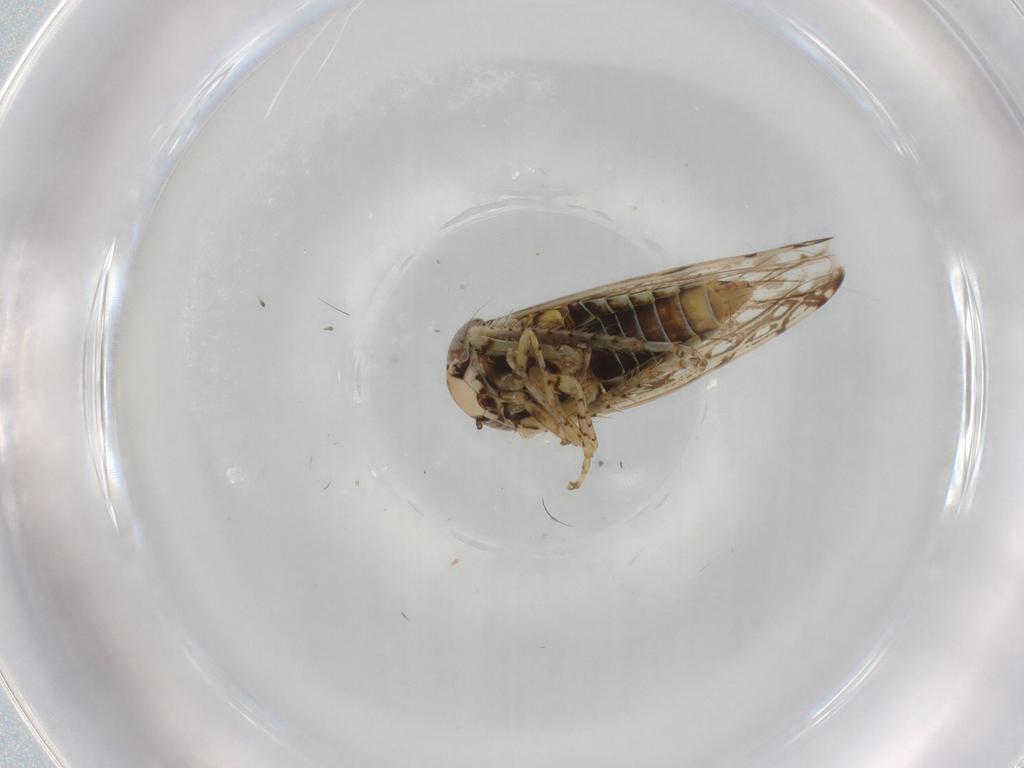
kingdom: Animalia
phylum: Arthropoda
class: Insecta
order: Hemiptera
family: Cicadellidae
